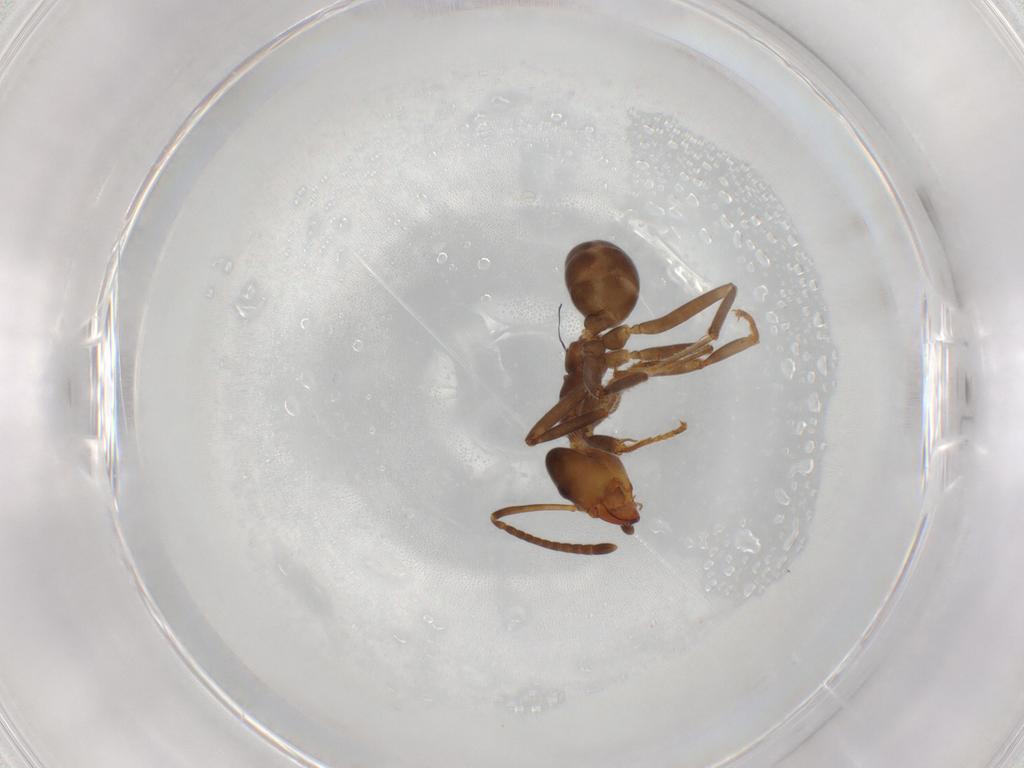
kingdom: Animalia
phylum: Arthropoda
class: Insecta
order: Hymenoptera
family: Formicidae
